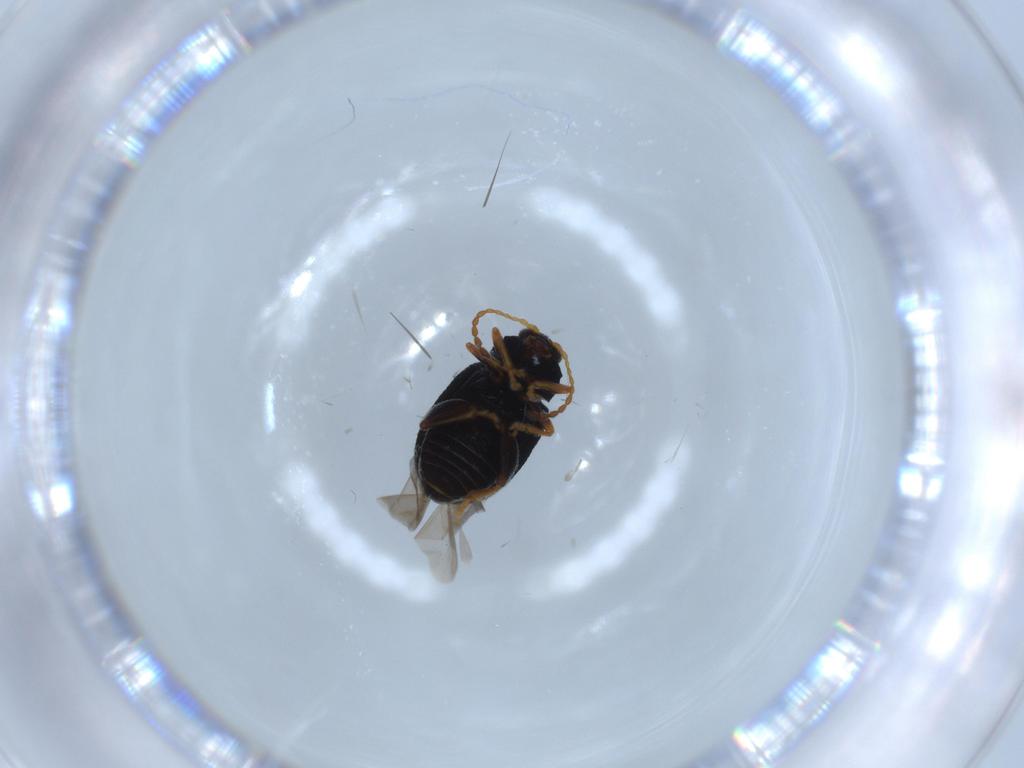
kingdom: Animalia
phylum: Arthropoda
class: Insecta
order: Coleoptera
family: Chrysomelidae
